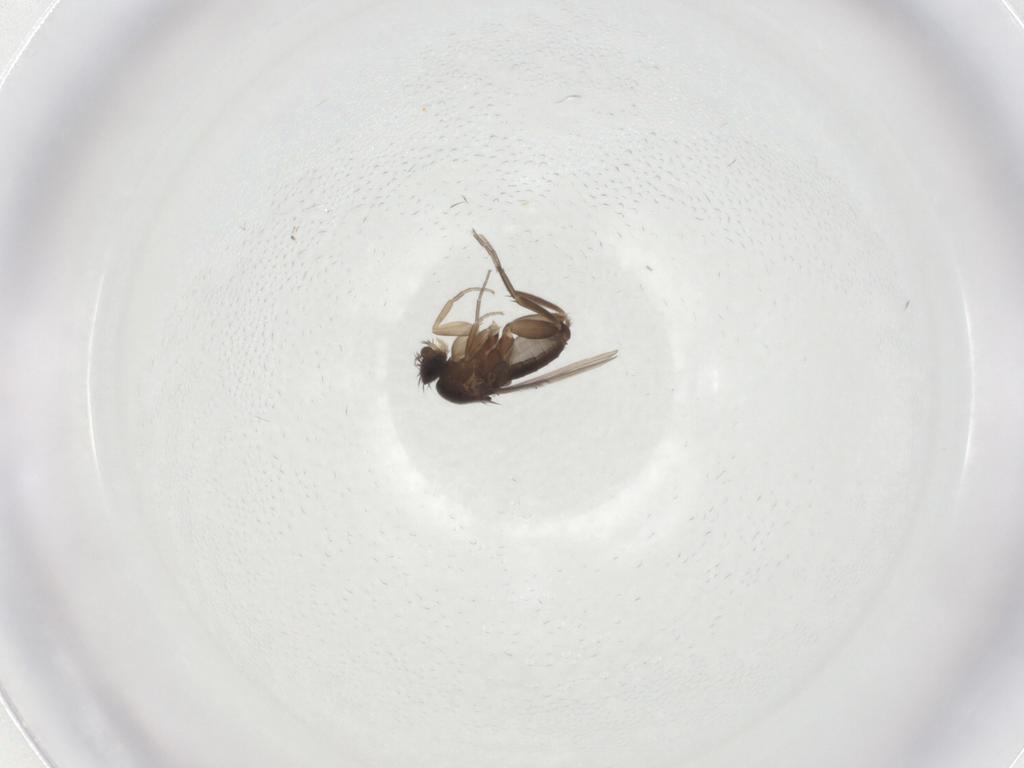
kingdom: Animalia
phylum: Arthropoda
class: Insecta
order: Diptera
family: Phoridae
